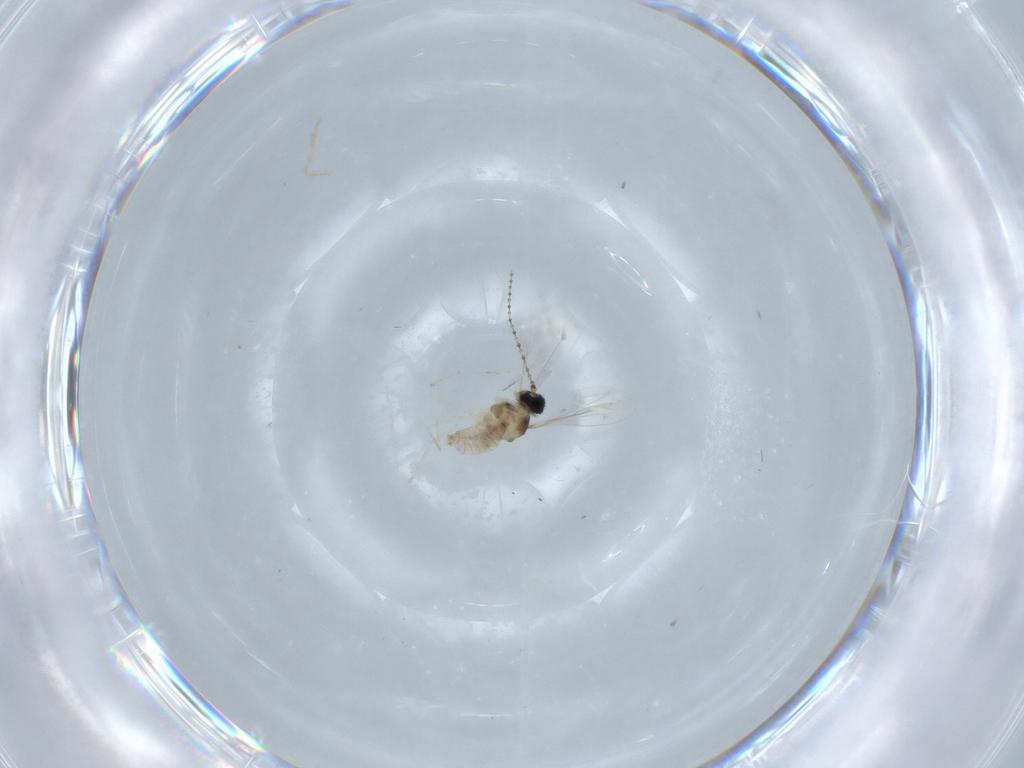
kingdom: Animalia
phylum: Arthropoda
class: Insecta
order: Diptera
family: Cecidomyiidae
